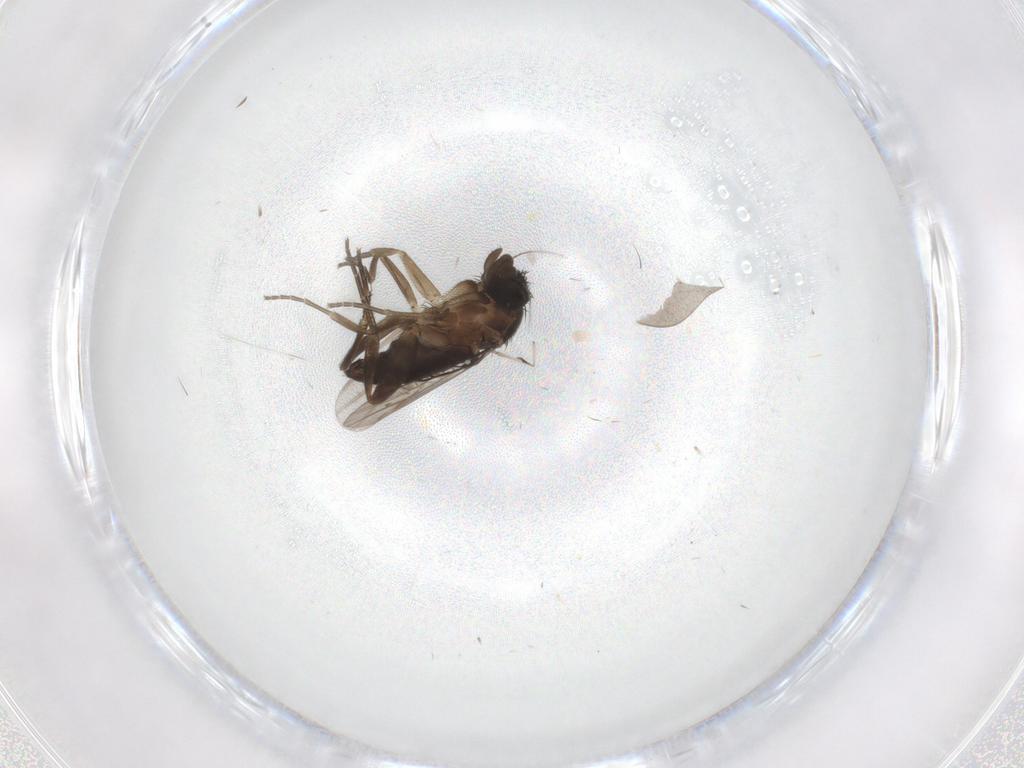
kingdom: Animalia
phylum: Arthropoda
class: Insecta
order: Diptera
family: Phoridae
